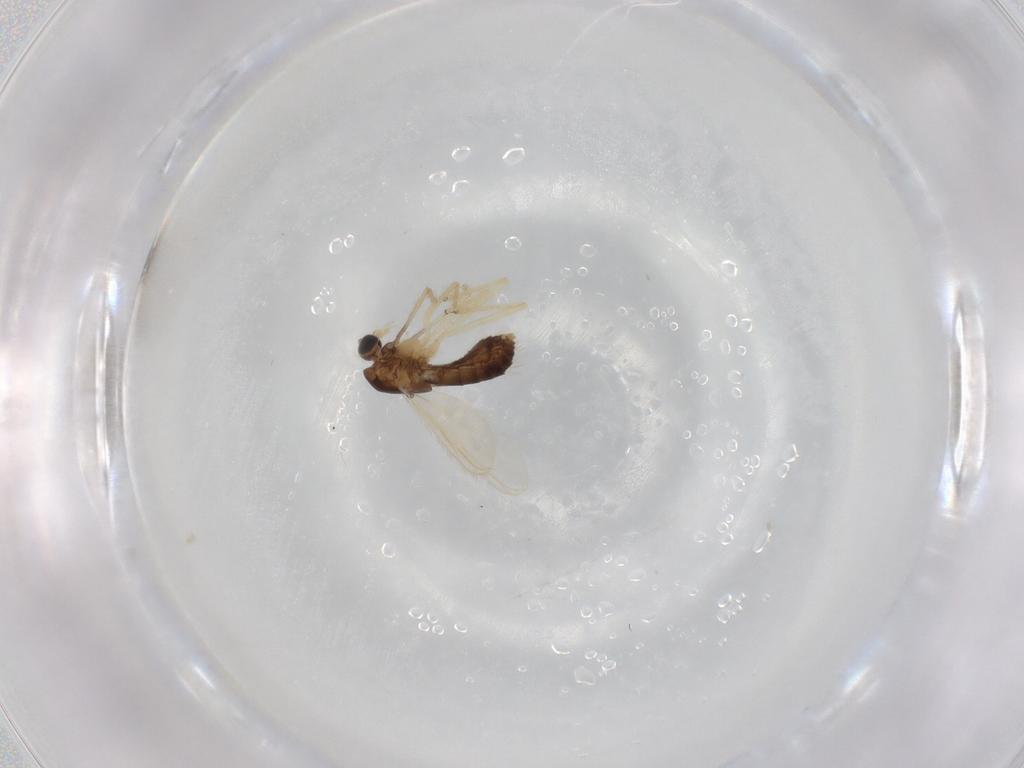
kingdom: Animalia
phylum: Arthropoda
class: Insecta
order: Diptera
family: Chironomidae
